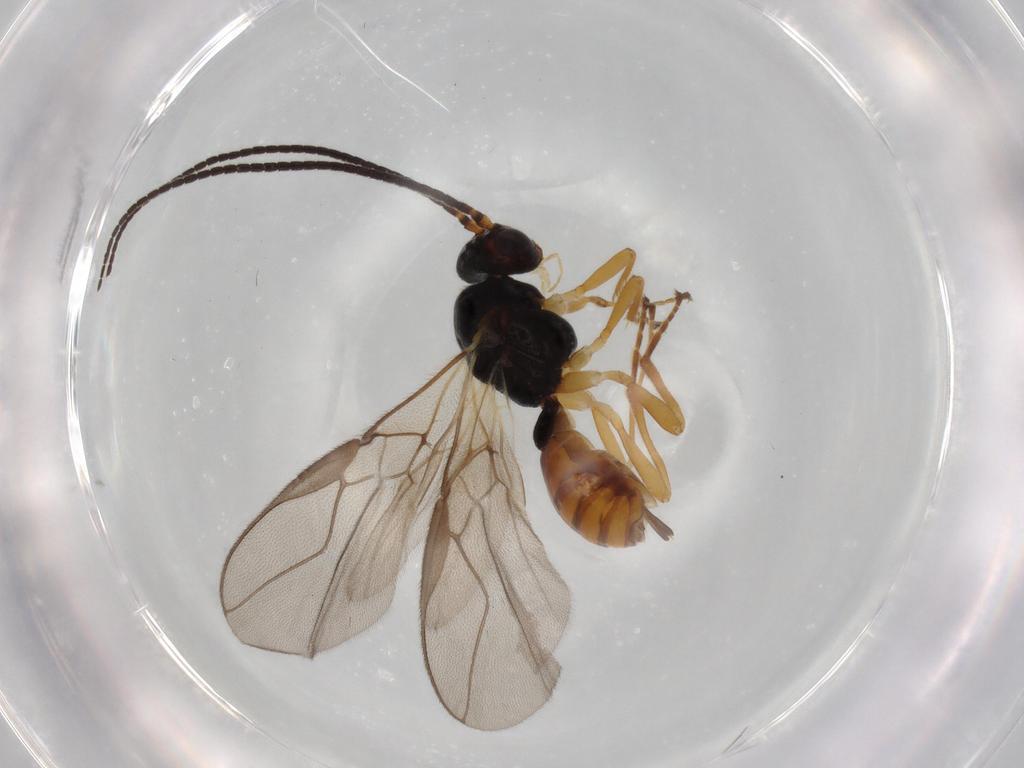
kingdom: Animalia
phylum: Arthropoda
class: Insecta
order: Hymenoptera
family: Braconidae
